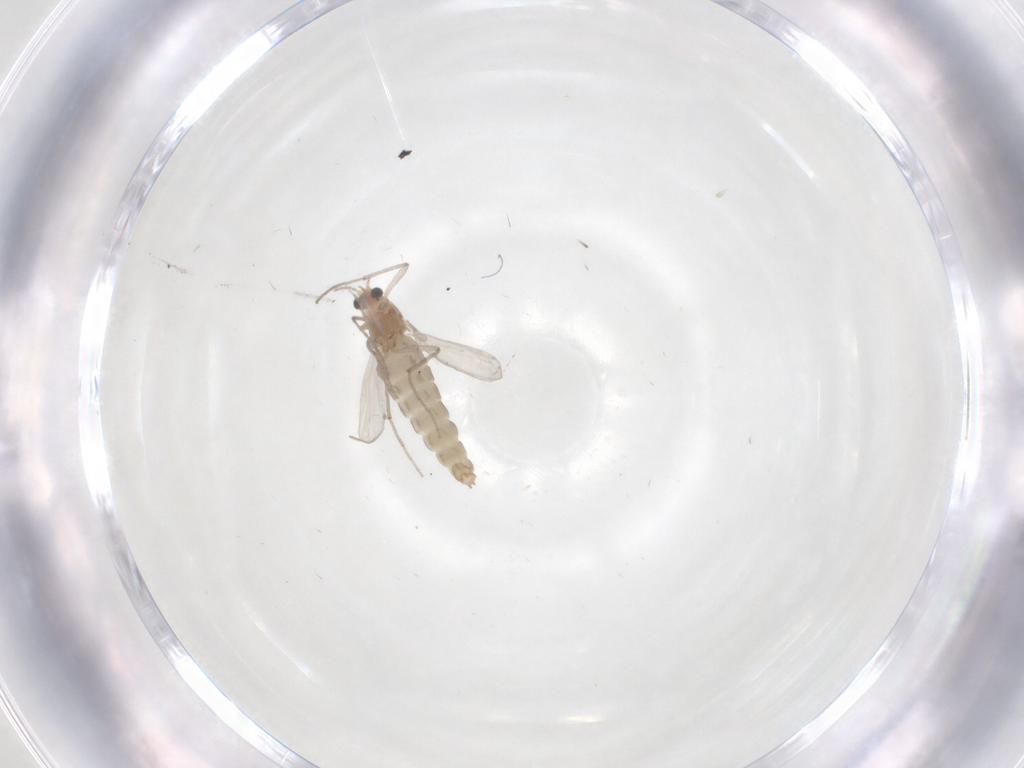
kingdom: Animalia
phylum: Arthropoda
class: Insecta
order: Diptera
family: Chironomidae
